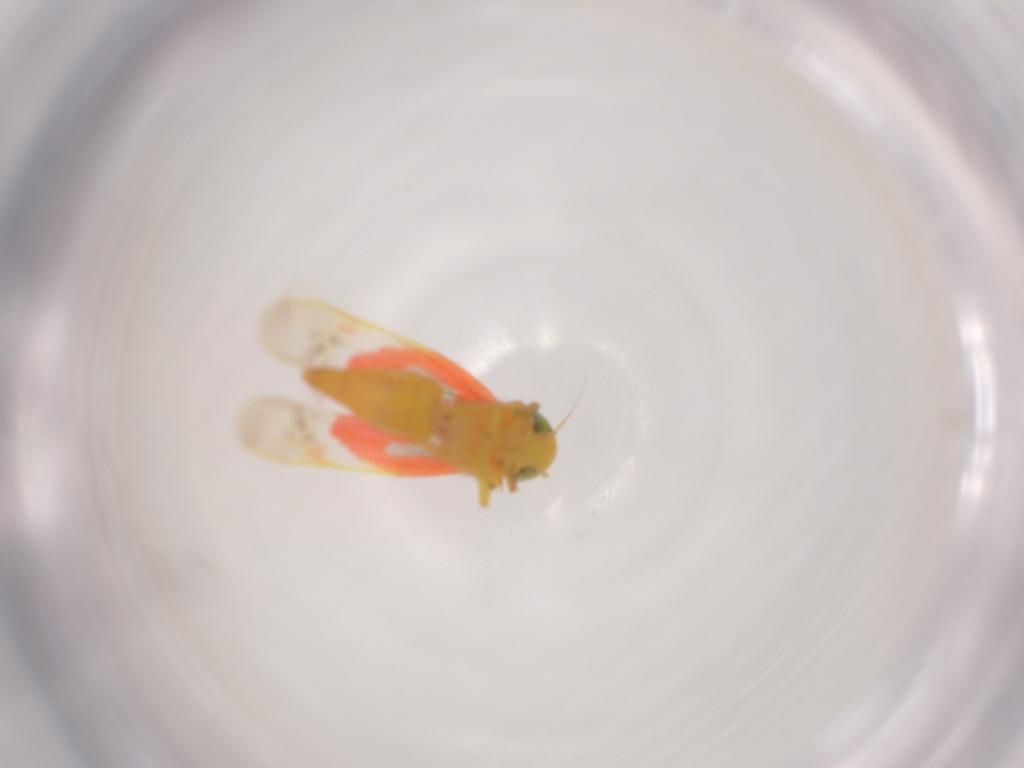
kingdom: Animalia
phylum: Arthropoda
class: Insecta
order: Hemiptera
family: Cicadellidae
